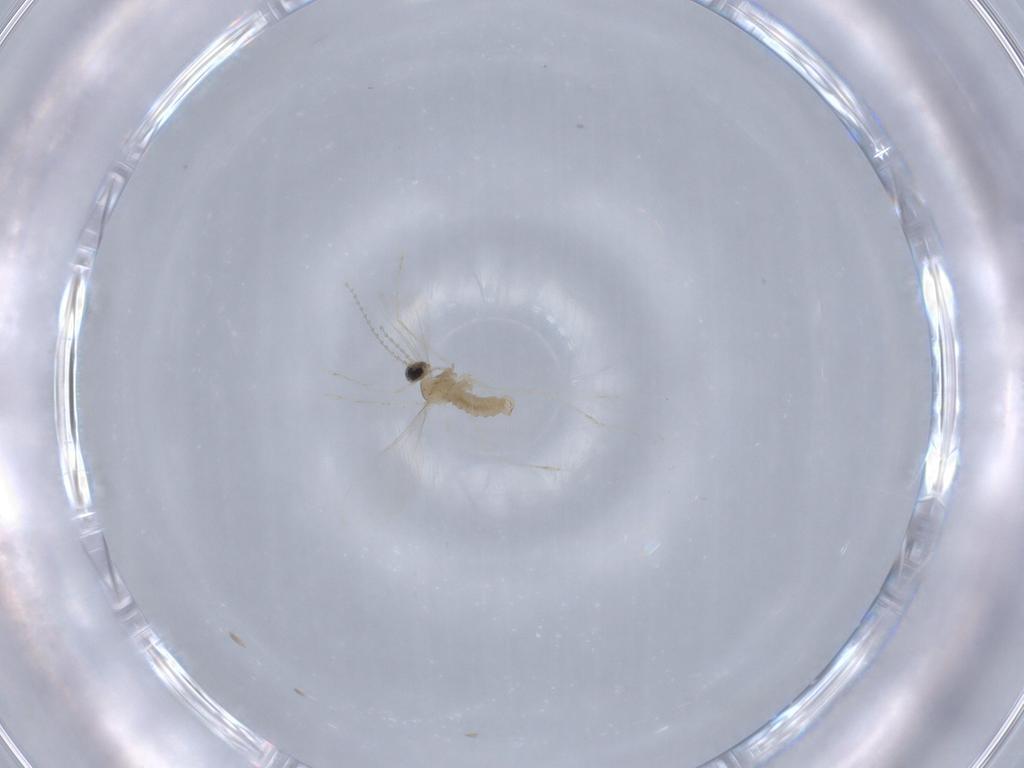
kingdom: Animalia
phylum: Arthropoda
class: Insecta
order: Diptera
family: Cecidomyiidae
